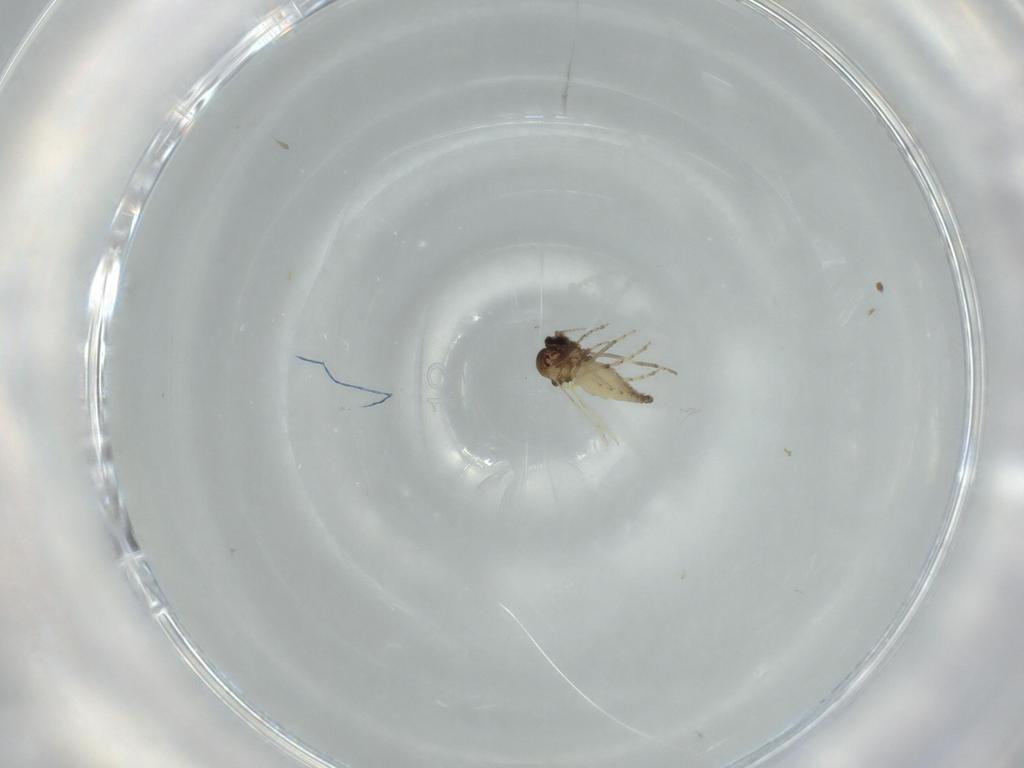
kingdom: Animalia
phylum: Arthropoda
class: Insecta
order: Diptera
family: Ceratopogonidae
